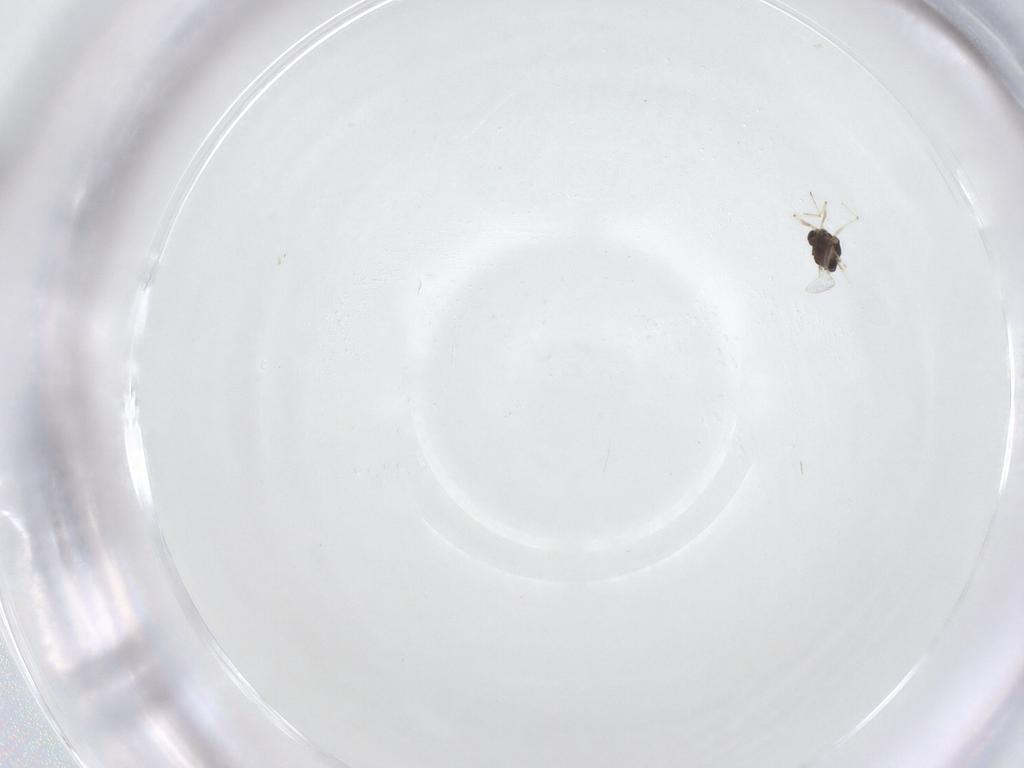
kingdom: Animalia
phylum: Arthropoda
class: Insecta
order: Diptera
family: Chironomidae
